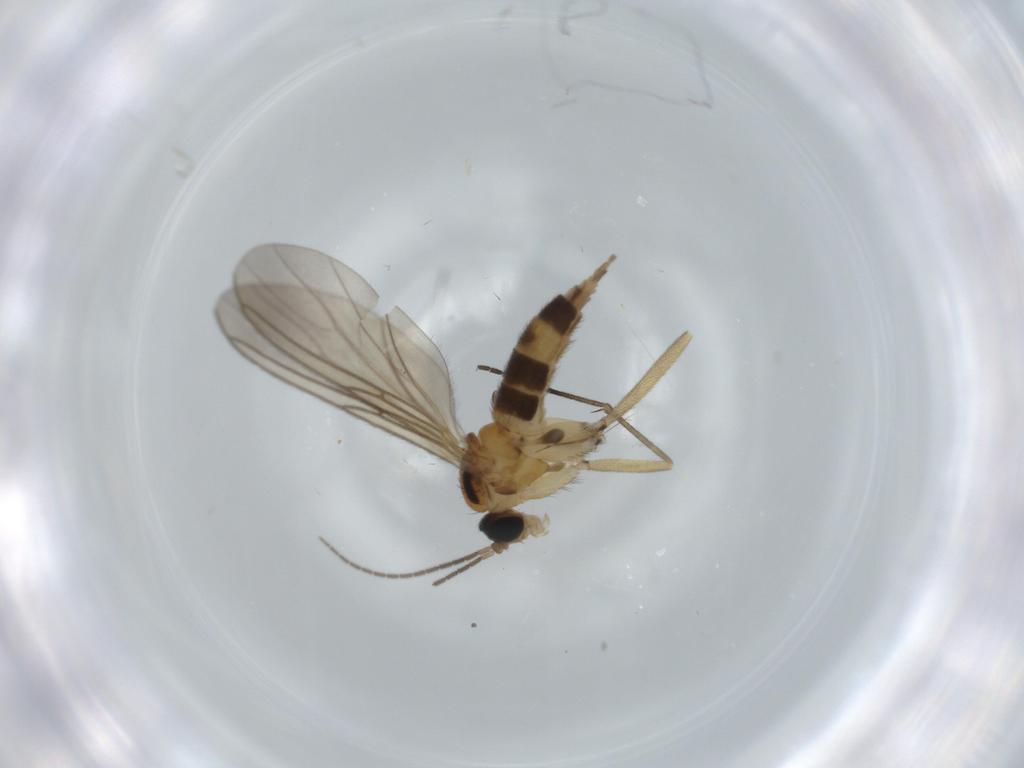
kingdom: Animalia
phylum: Arthropoda
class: Insecta
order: Diptera
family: Sciaridae
